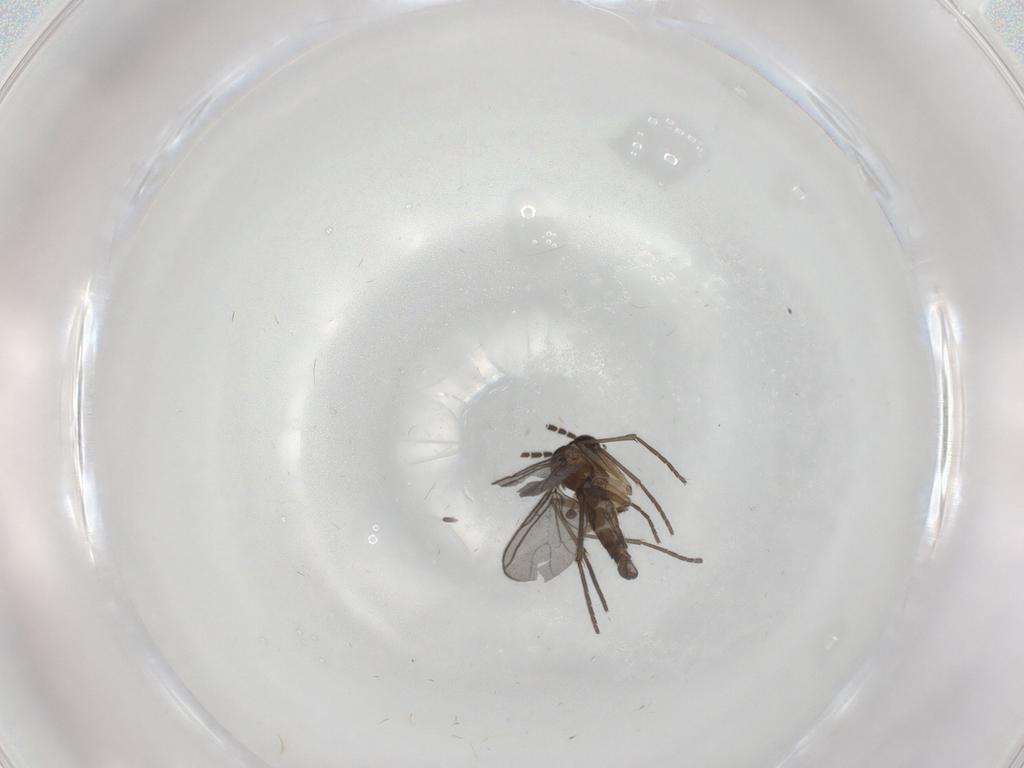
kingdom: Animalia
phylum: Arthropoda
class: Insecta
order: Diptera
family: Sciaridae
